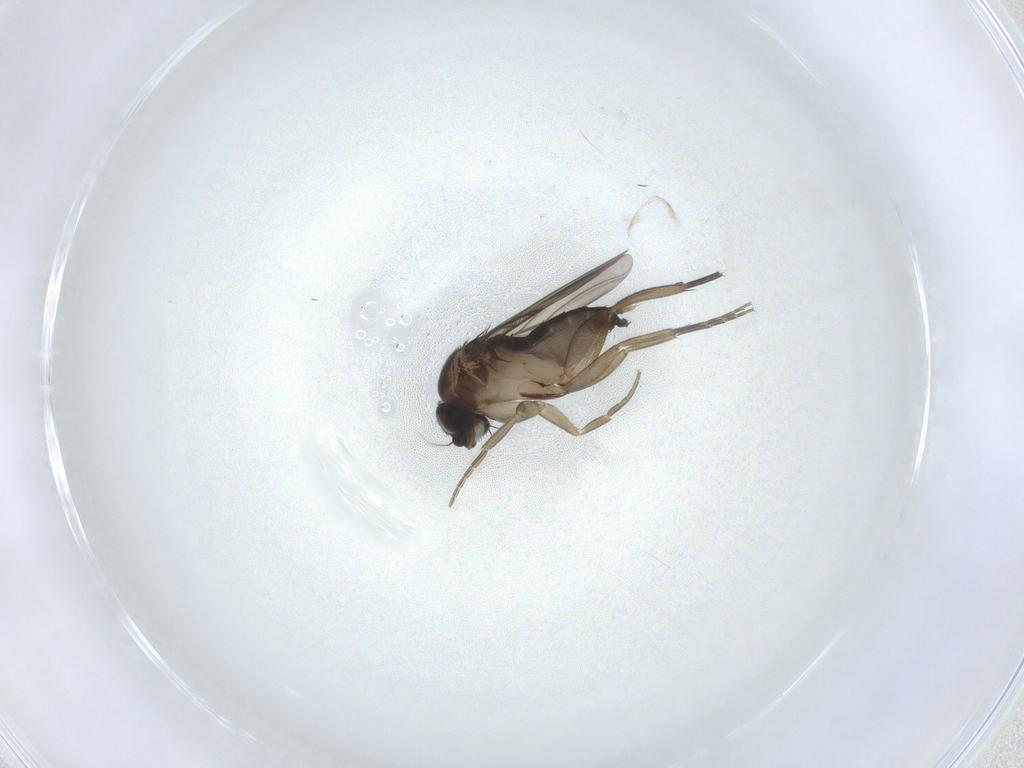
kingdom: Animalia
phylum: Arthropoda
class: Insecta
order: Diptera
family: Phoridae
